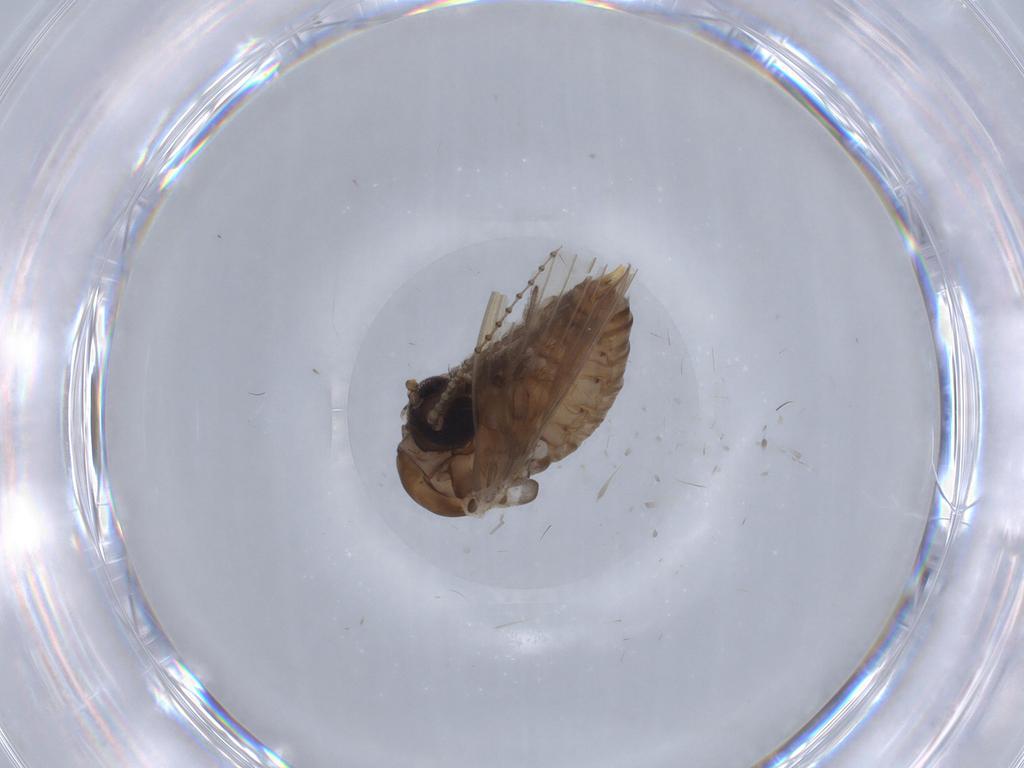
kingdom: Animalia
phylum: Arthropoda
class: Insecta
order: Diptera
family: Psychodidae
